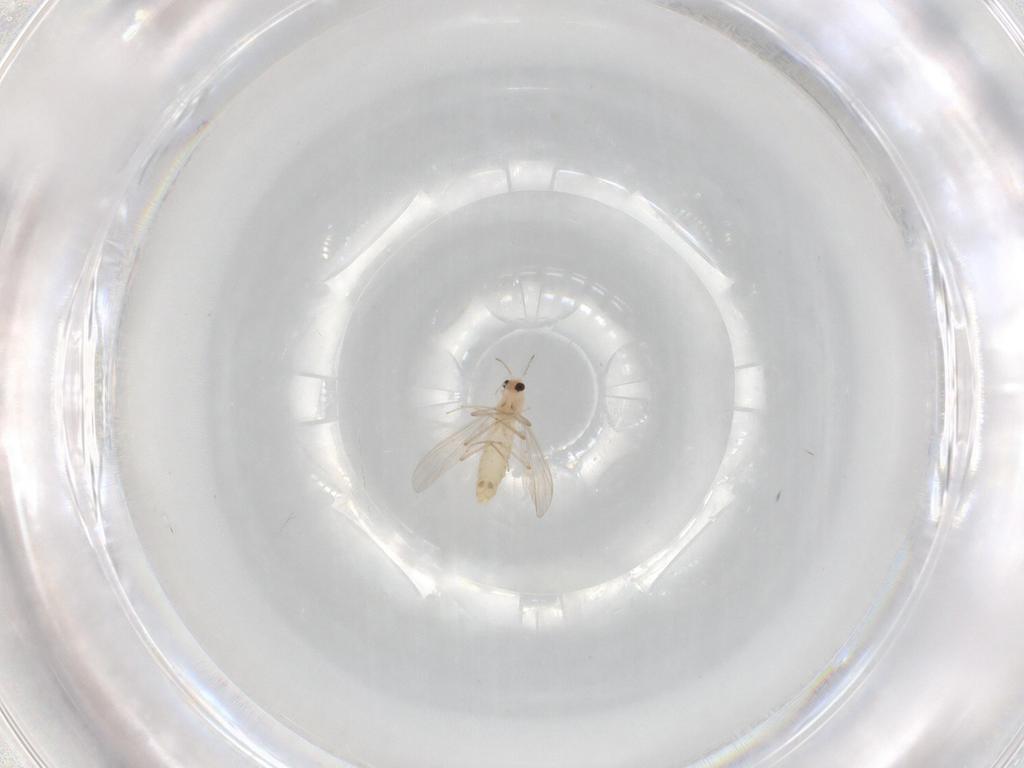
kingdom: Animalia
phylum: Arthropoda
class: Insecta
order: Diptera
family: Chironomidae
